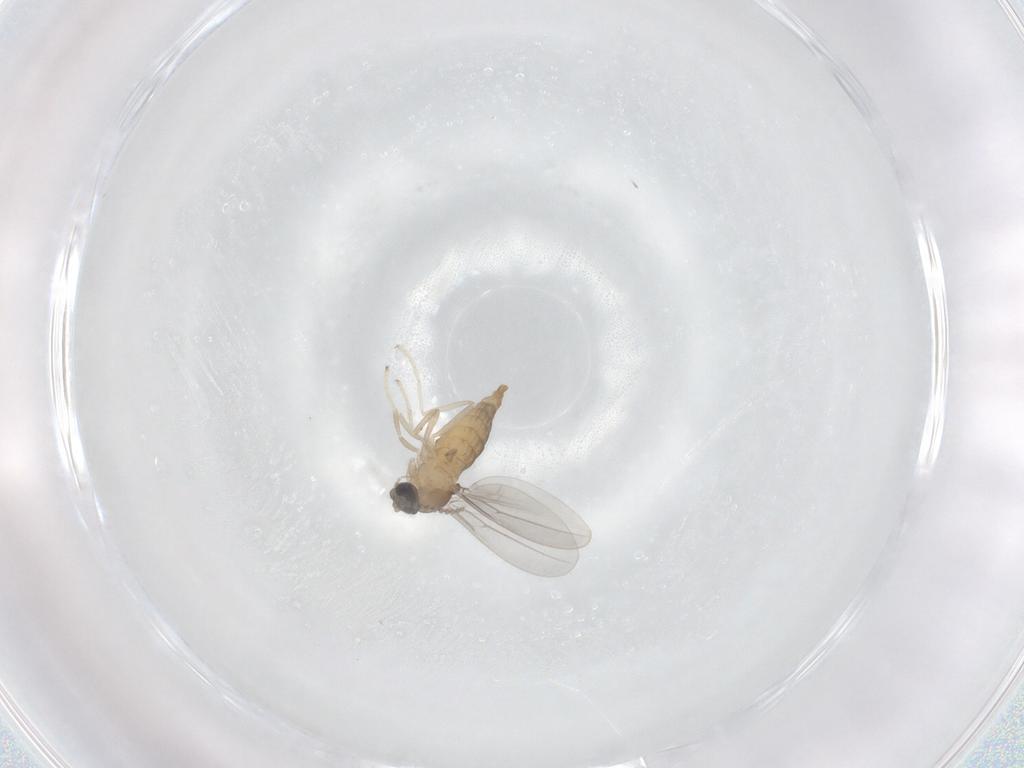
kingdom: Animalia
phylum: Arthropoda
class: Insecta
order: Diptera
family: Cecidomyiidae
